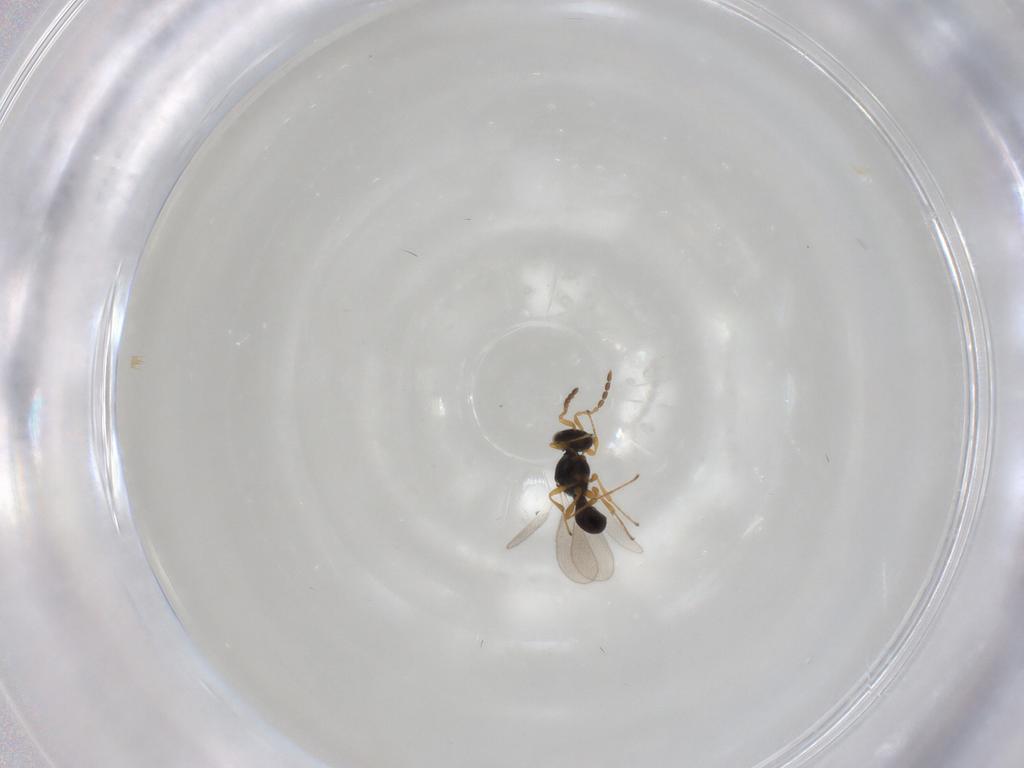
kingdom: Animalia
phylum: Arthropoda
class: Insecta
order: Hymenoptera
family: Platygastridae
